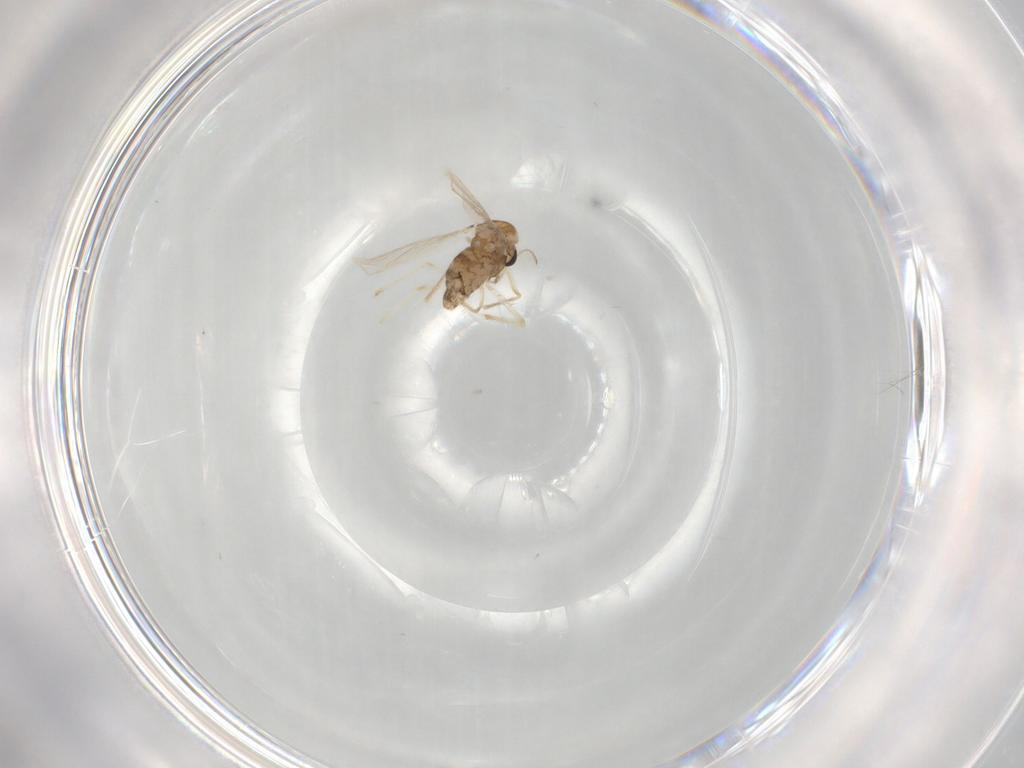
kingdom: Animalia
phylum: Arthropoda
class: Insecta
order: Diptera
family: Chironomidae
